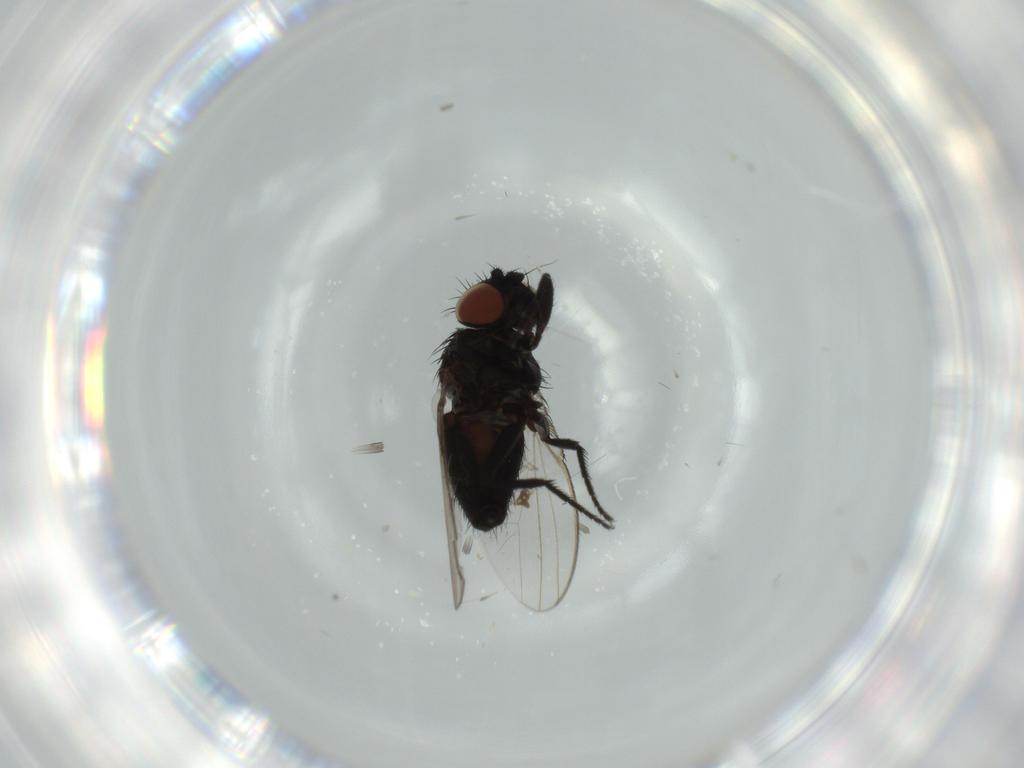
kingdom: Animalia
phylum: Arthropoda
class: Insecta
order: Diptera
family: Milichiidae
